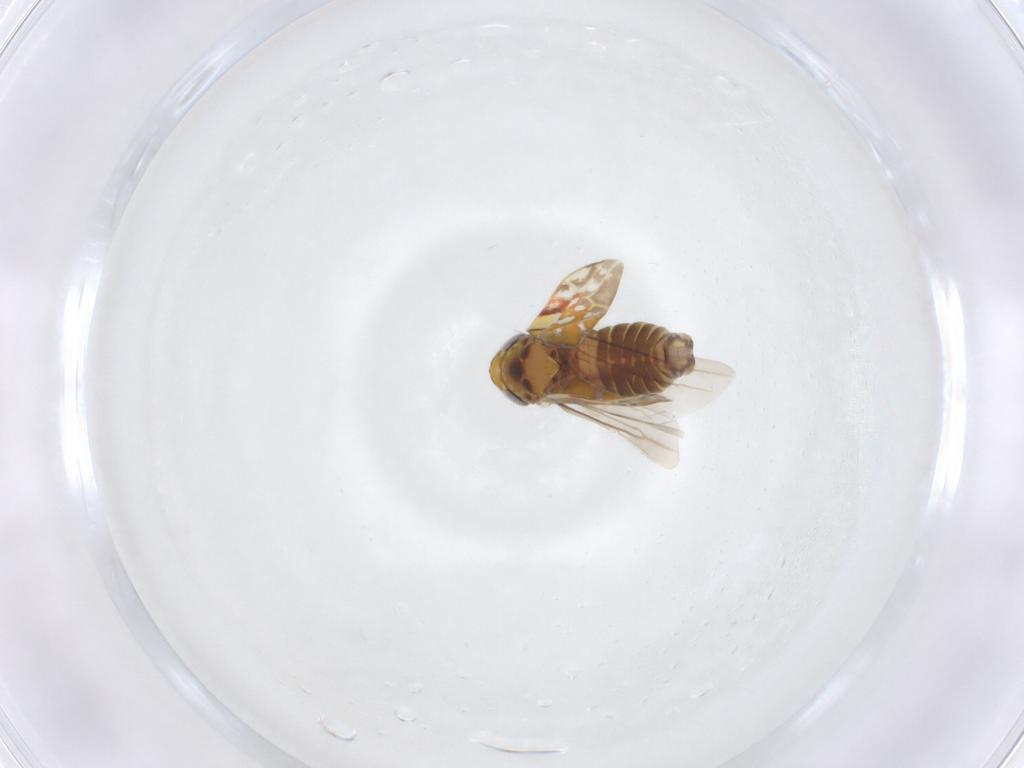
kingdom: Animalia
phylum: Arthropoda
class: Insecta
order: Hemiptera
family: Cicadellidae
